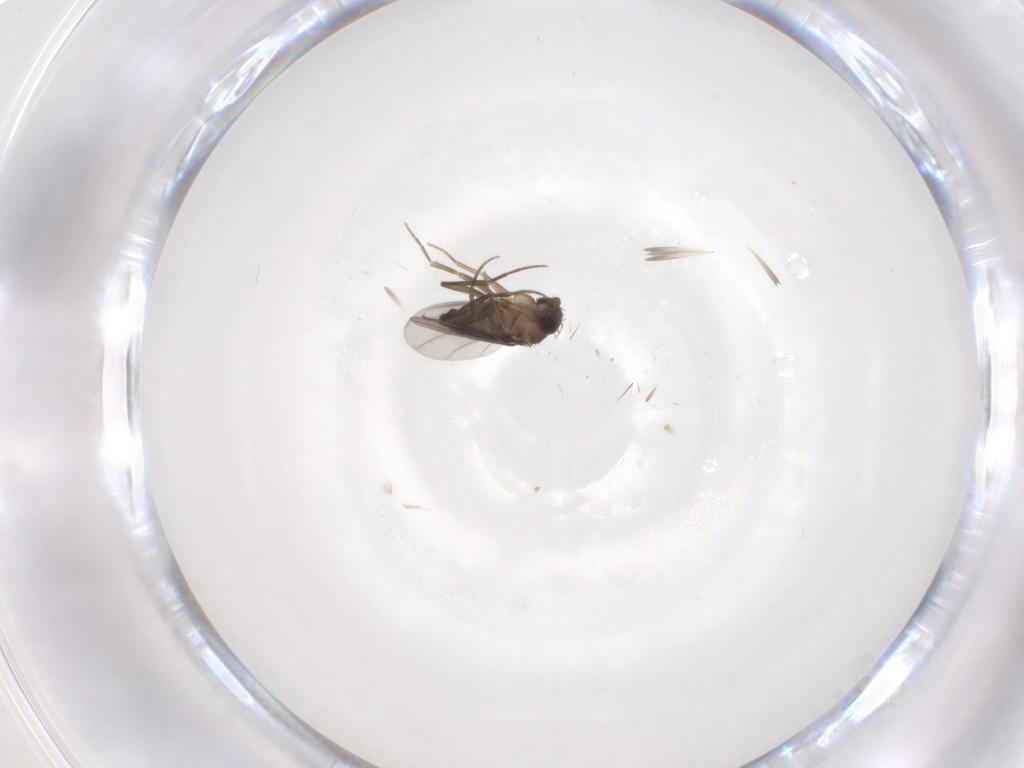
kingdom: Animalia
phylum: Arthropoda
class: Insecta
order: Diptera
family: Phoridae
